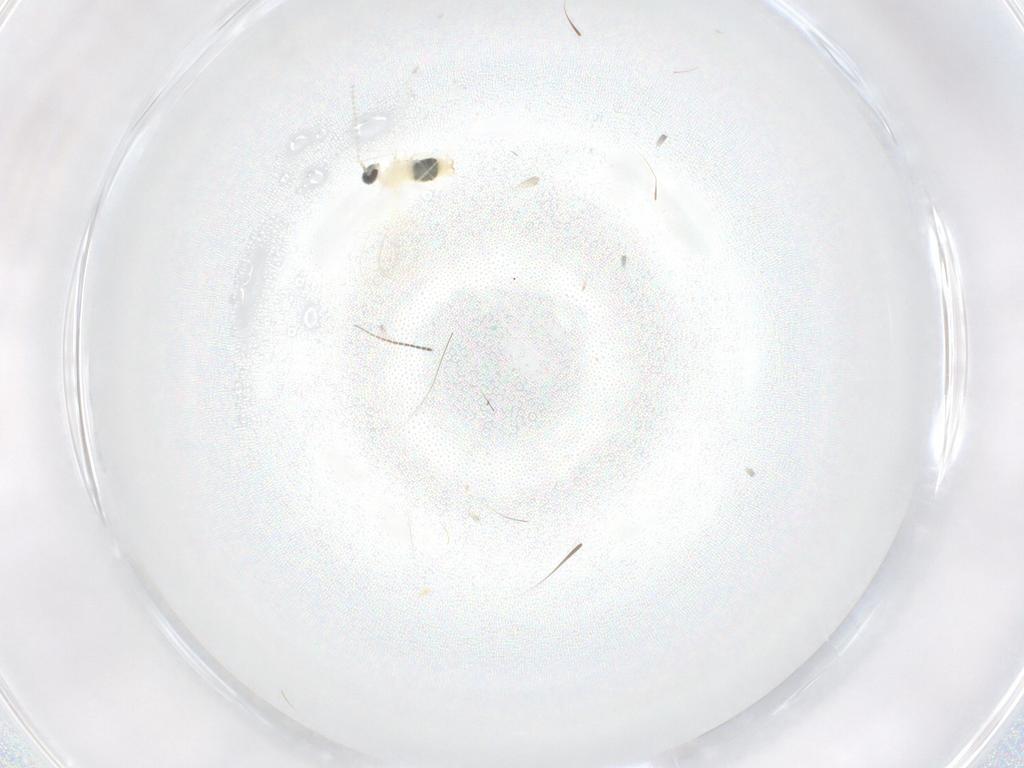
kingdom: Animalia
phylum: Arthropoda
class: Insecta
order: Diptera
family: Cecidomyiidae
